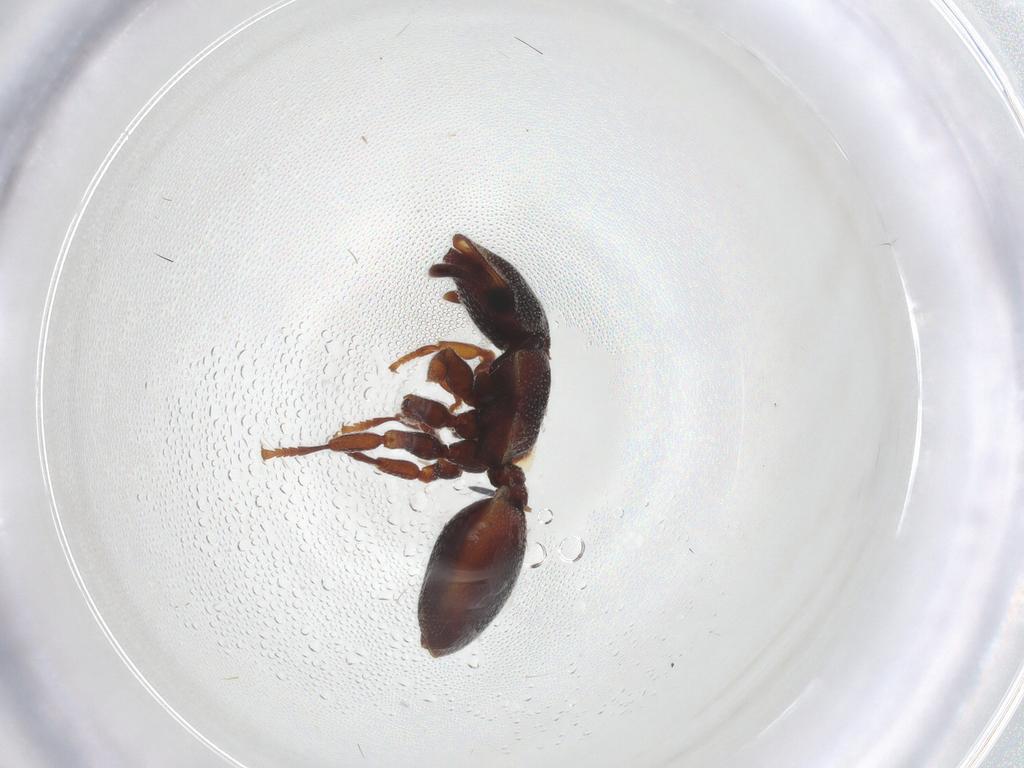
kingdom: Animalia
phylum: Arthropoda
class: Insecta
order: Hymenoptera
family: Formicidae
